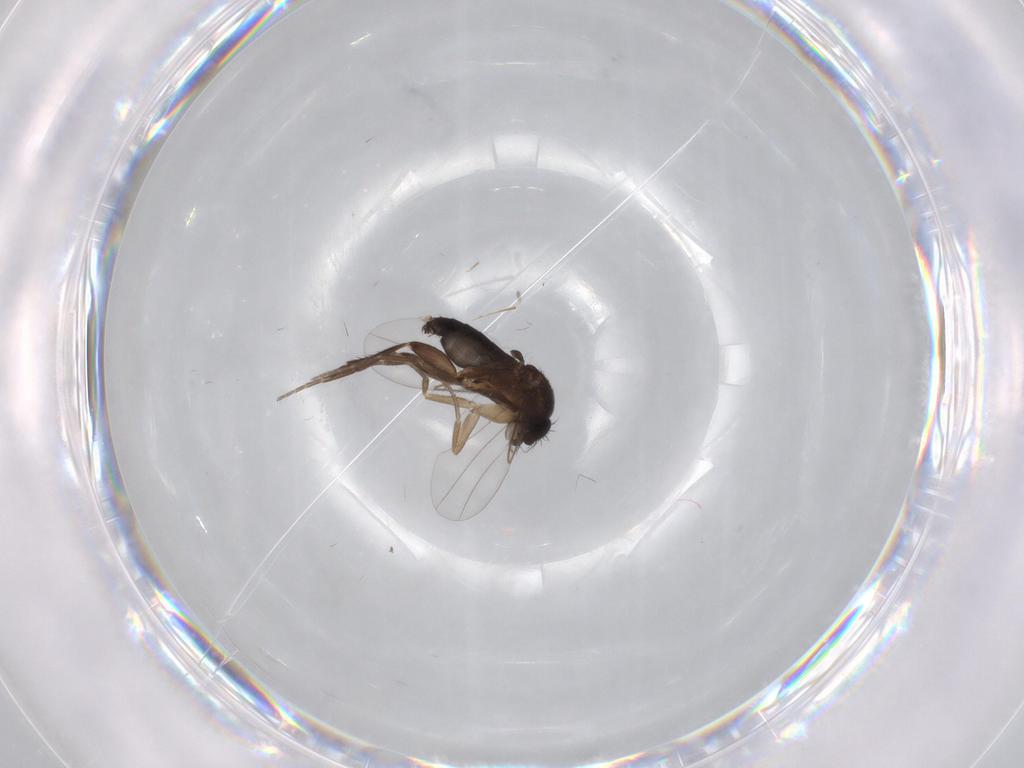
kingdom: Animalia
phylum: Arthropoda
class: Insecta
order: Diptera
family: Phoridae
